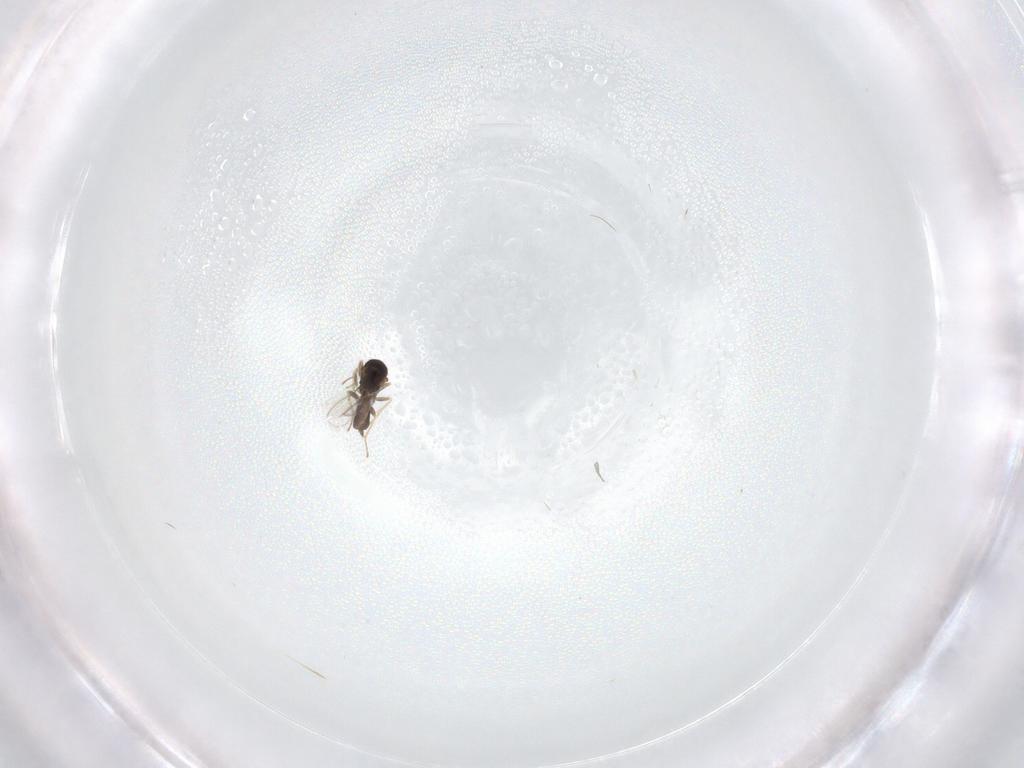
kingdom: Animalia
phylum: Arthropoda
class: Insecta
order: Hymenoptera
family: Eulophidae
